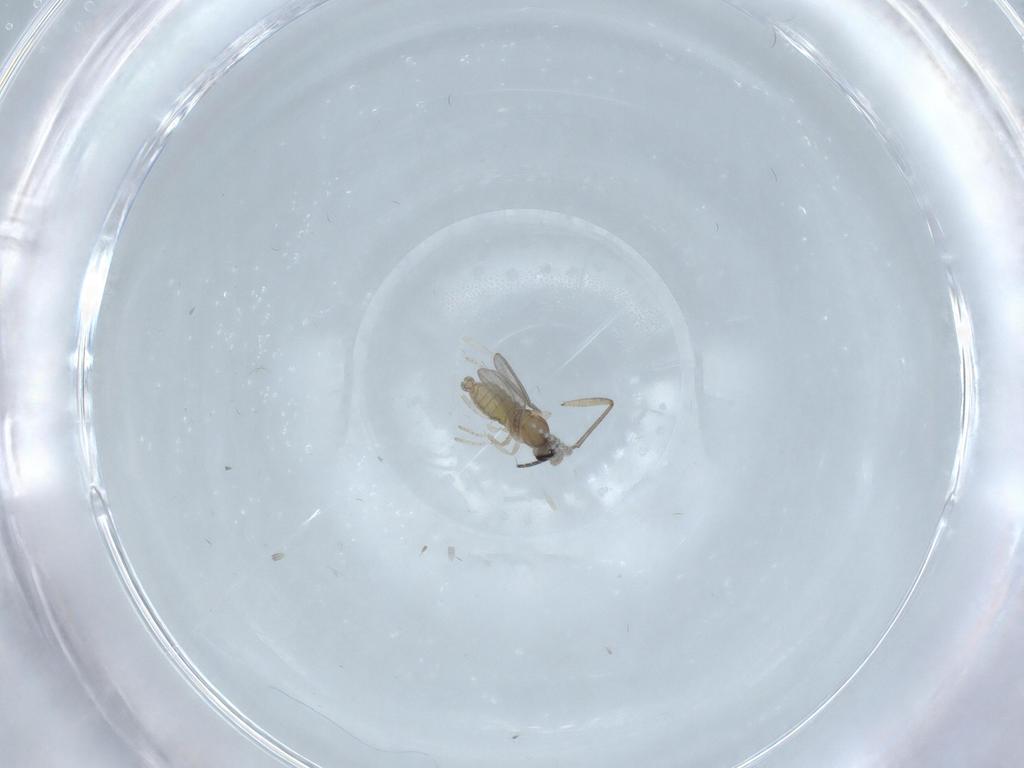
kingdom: Animalia
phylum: Arthropoda
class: Insecta
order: Diptera
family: Cecidomyiidae
